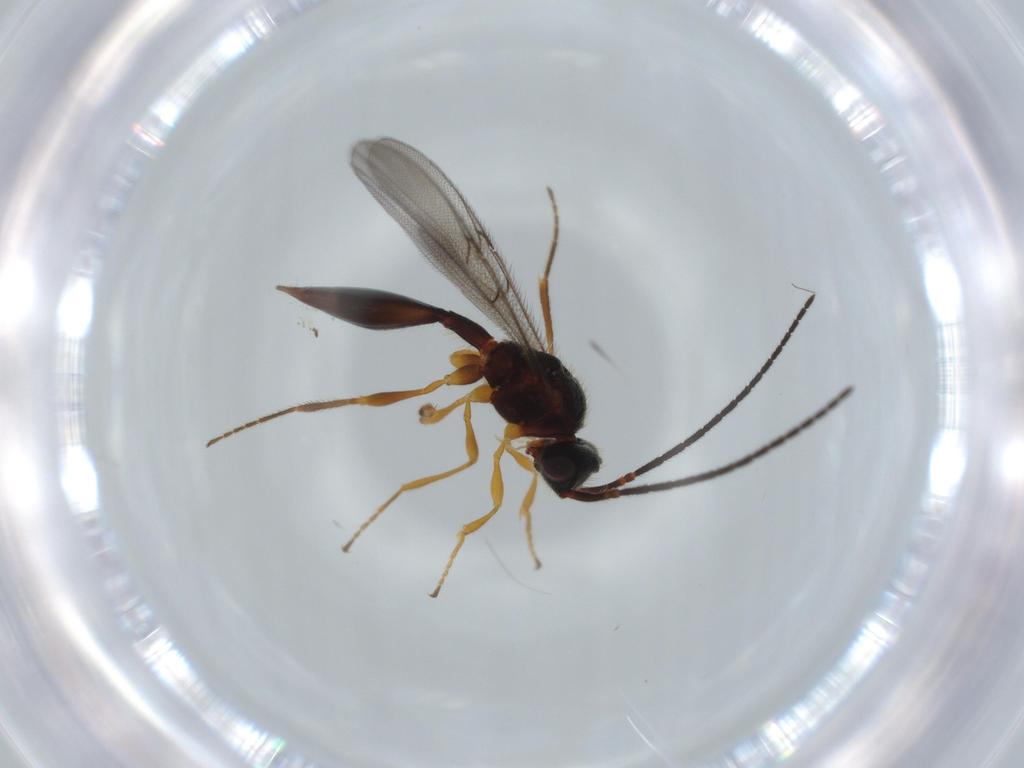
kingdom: Animalia
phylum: Arthropoda
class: Insecta
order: Hymenoptera
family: Diapriidae
